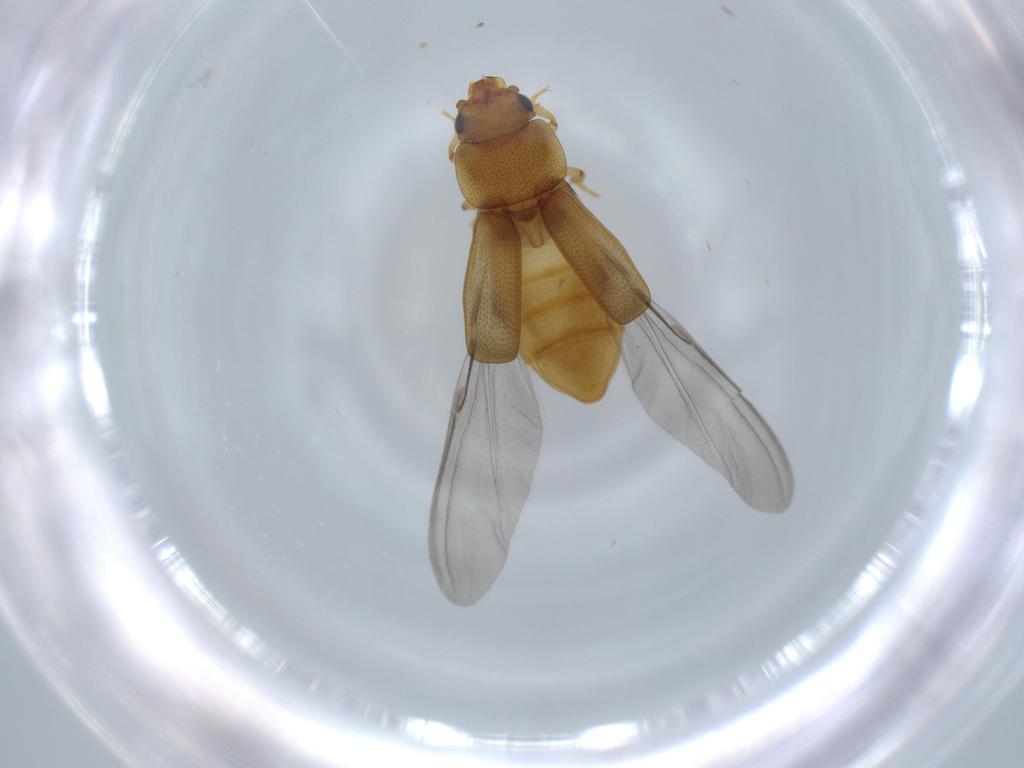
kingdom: Animalia
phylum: Arthropoda
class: Insecta
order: Coleoptera
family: Nitidulidae
